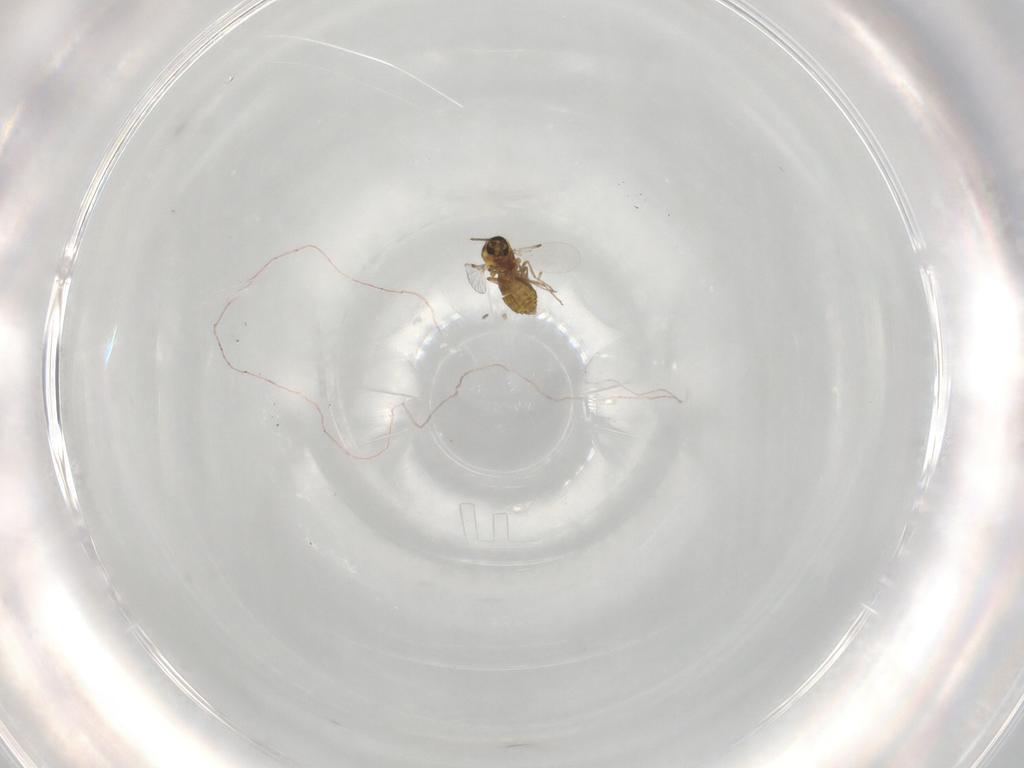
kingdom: Animalia
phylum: Arthropoda
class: Insecta
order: Diptera
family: Ceratopogonidae
